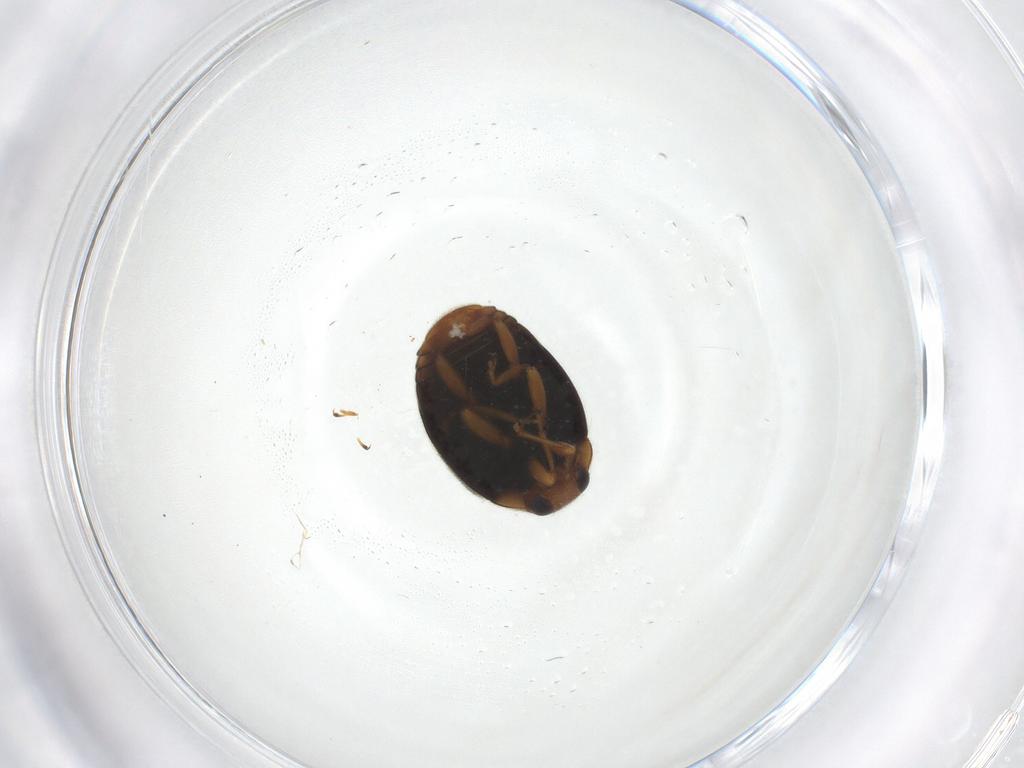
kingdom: Animalia
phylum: Arthropoda
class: Insecta
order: Coleoptera
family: Coccinellidae
